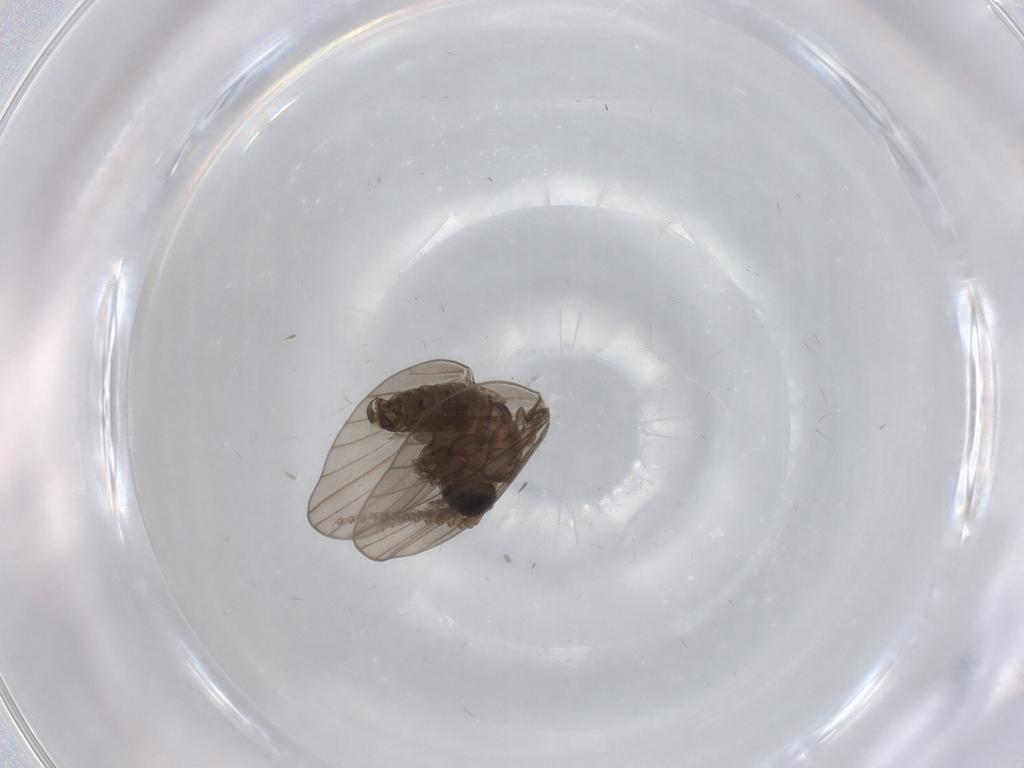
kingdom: Animalia
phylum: Arthropoda
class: Insecta
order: Diptera
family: Psychodidae
